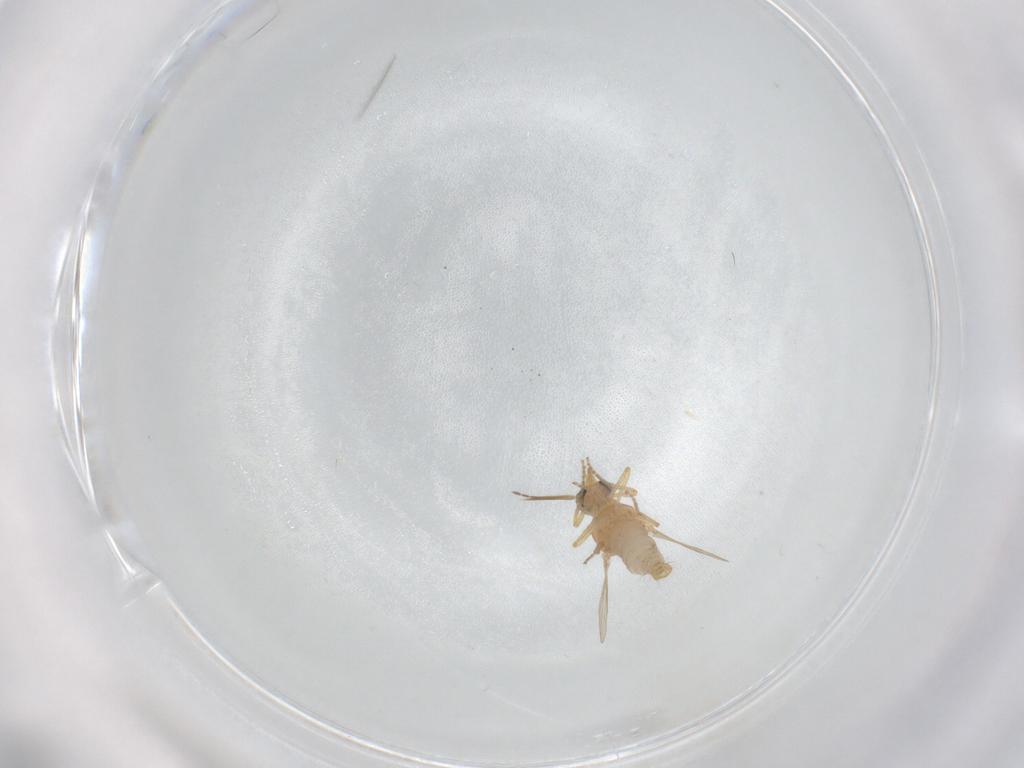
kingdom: Animalia
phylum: Arthropoda
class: Insecta
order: Diptera
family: Ceratopogonidae
